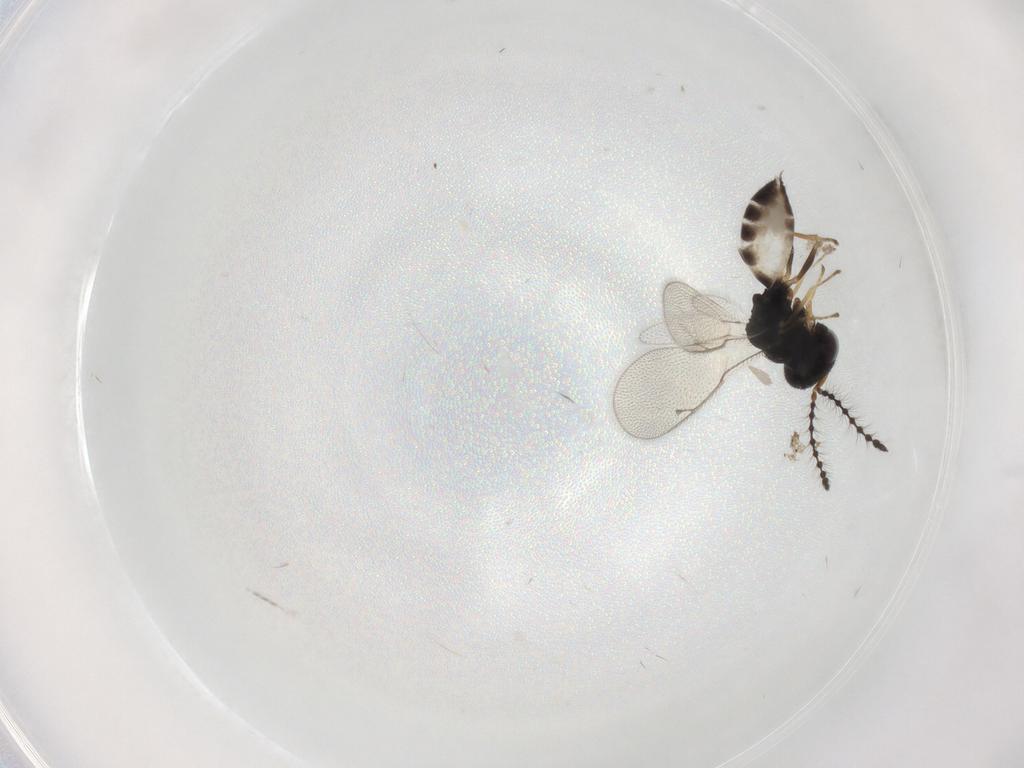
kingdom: Animalia
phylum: Arthropoda
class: Insecta
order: Hymenoptera
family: Pteromalidae
